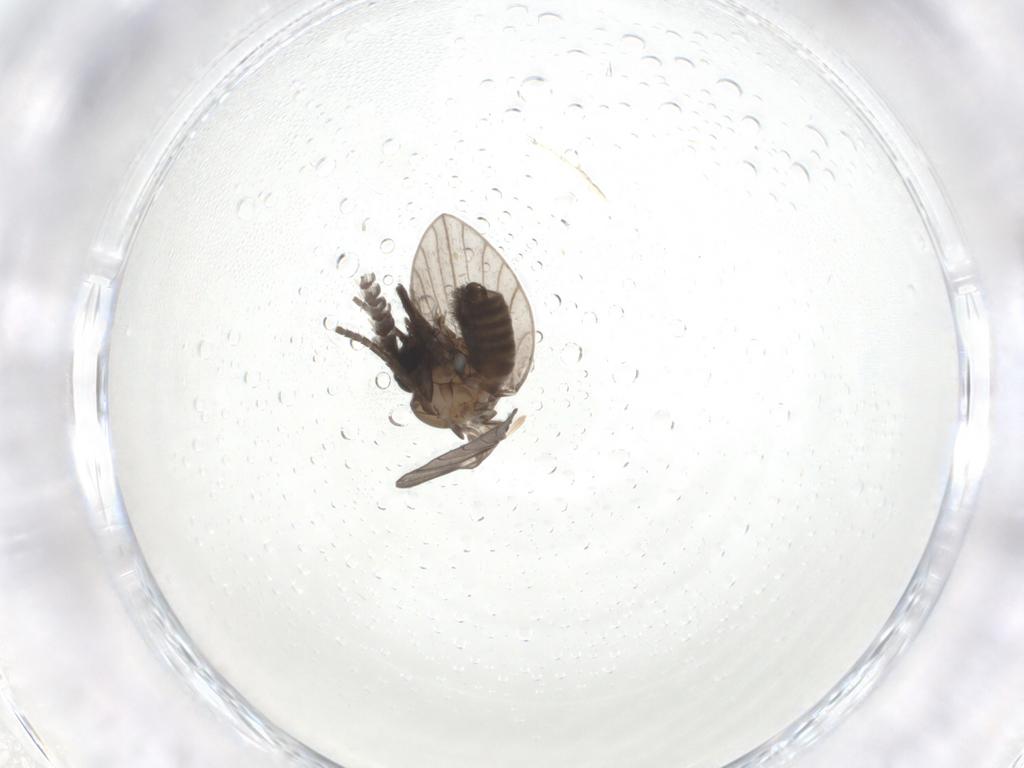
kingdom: Animalia
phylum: Arthropoda
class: Insecta
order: Diptera
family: Psychodidae
